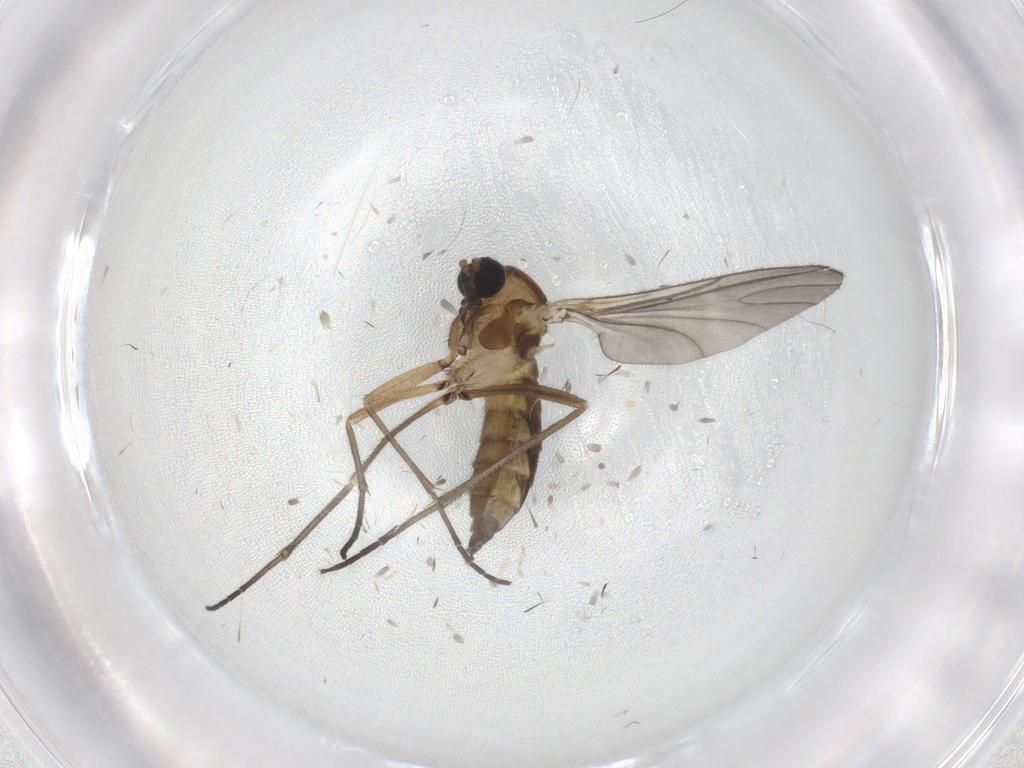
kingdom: Animalia
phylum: Arthropoda
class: Insecta
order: Diptera
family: Sciaridae
